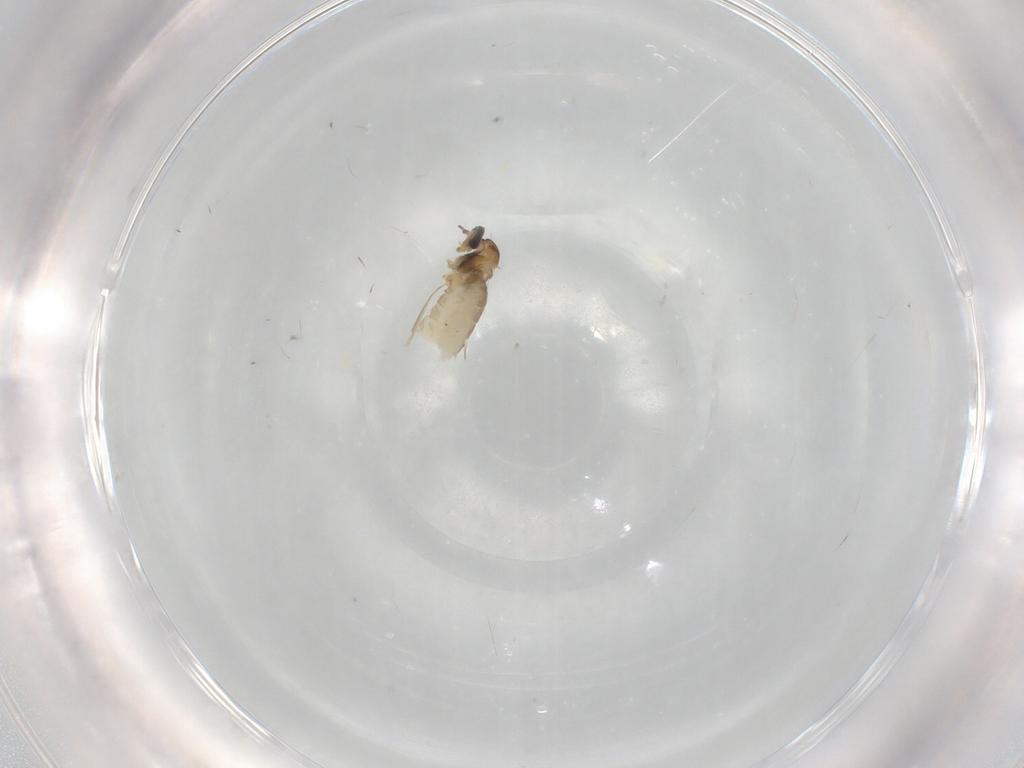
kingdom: Animalia
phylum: Arthropoda
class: Insecta
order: Diptera
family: Cecidomyiidae
